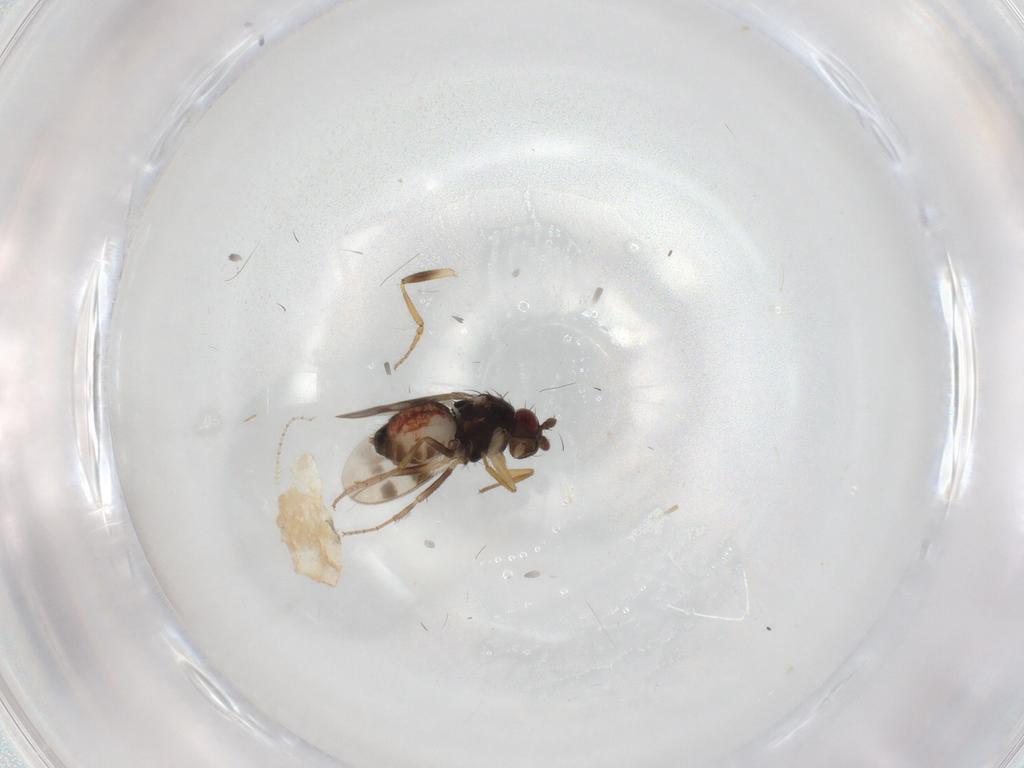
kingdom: Animalia
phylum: Arthropoda
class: Insecta
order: Diptera
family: Sphaeroceridae
